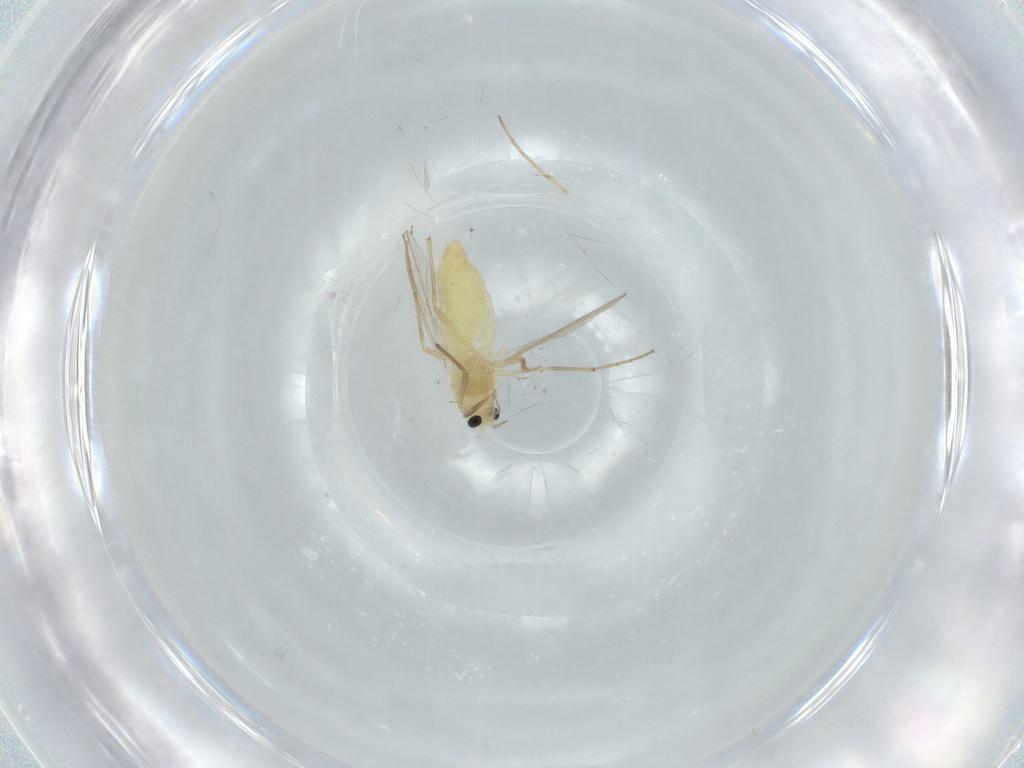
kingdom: Animalia
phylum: Arthropoda
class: Insecta
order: Diptera
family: Chironomidae
